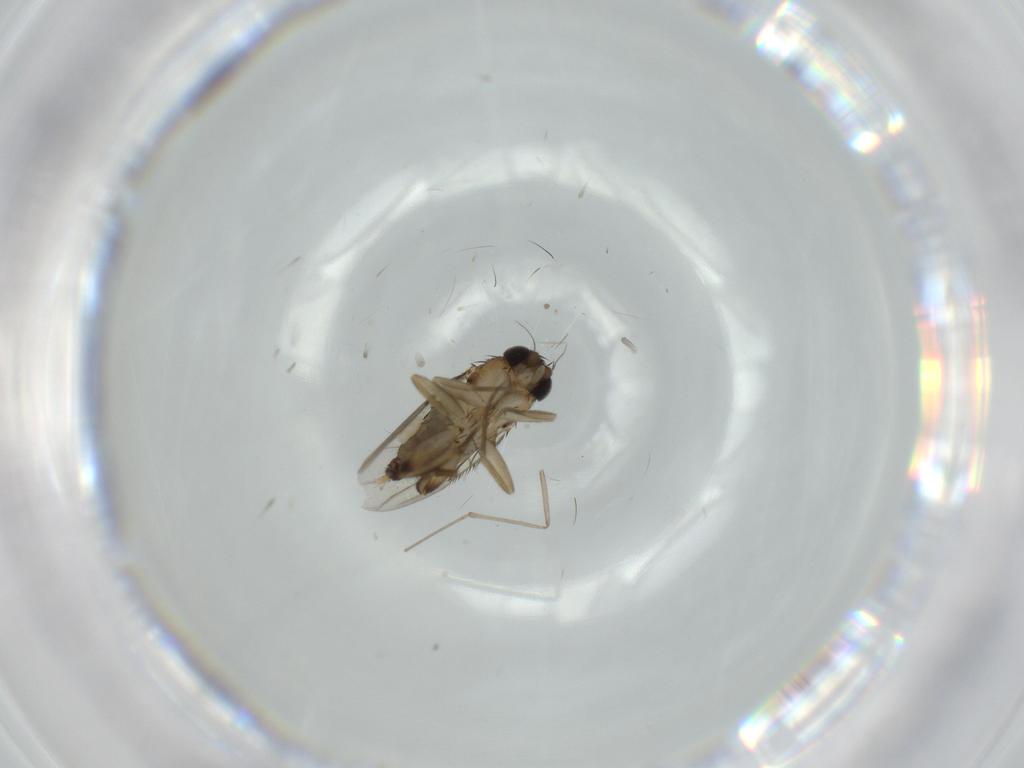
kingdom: Animalia
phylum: Arthropoda
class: Insecta
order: Diptera
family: Phoridae
